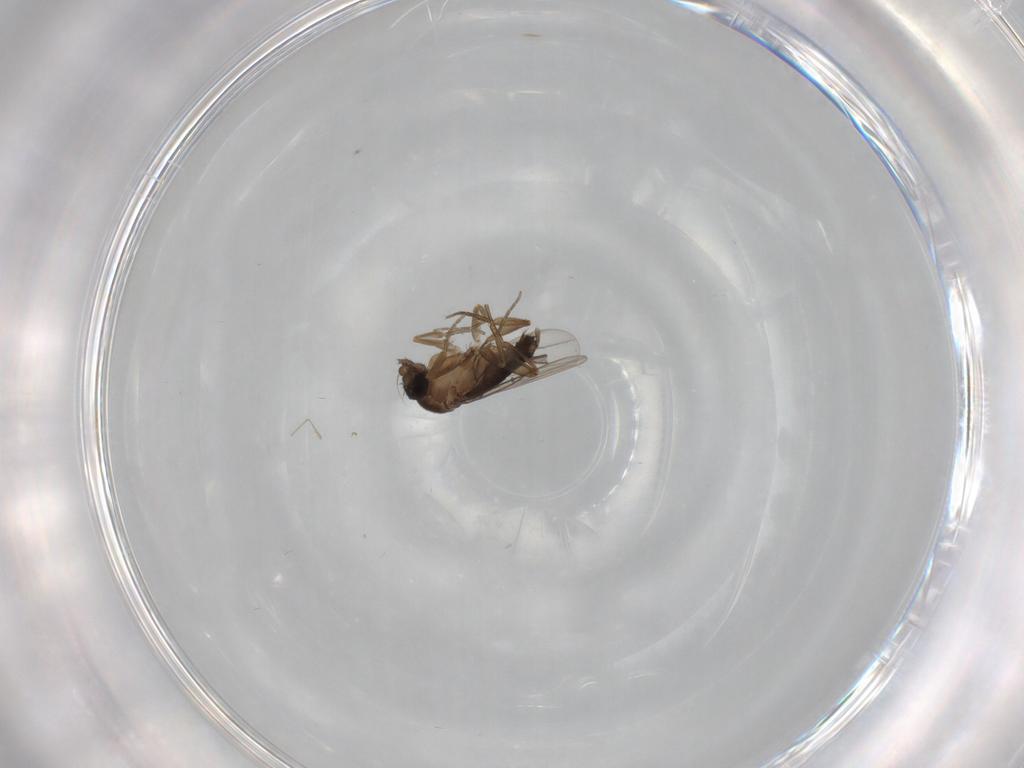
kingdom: Animalia
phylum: Arthropoda
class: Insecta
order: Diptera
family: Phoridae
